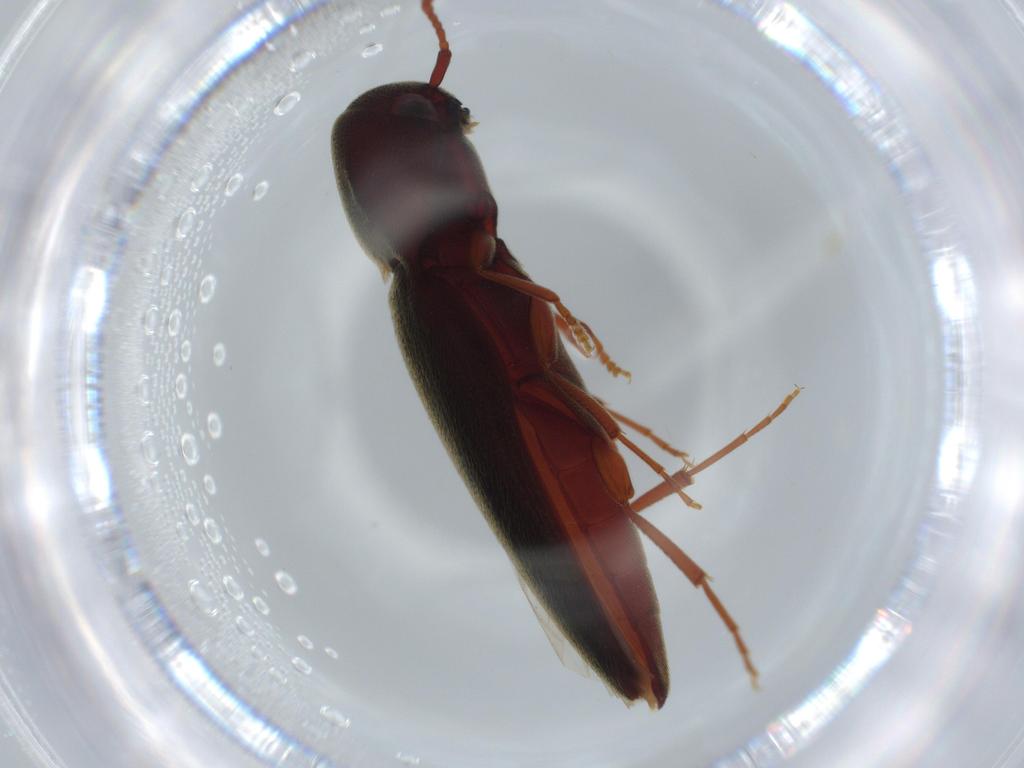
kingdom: Animalia
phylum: Arthropoda
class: Insecta
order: Coleoptera
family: Eucnemidae
